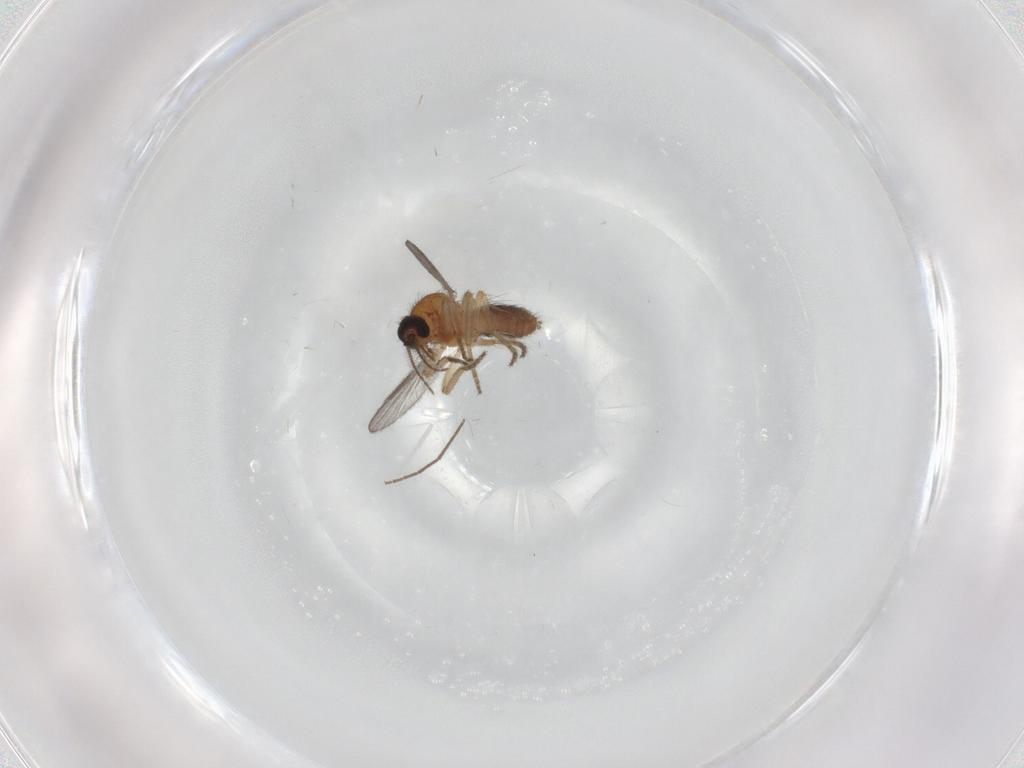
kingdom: Animalia
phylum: Arthropoda
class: Insecta
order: Diptera
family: Ceratopogonidae
